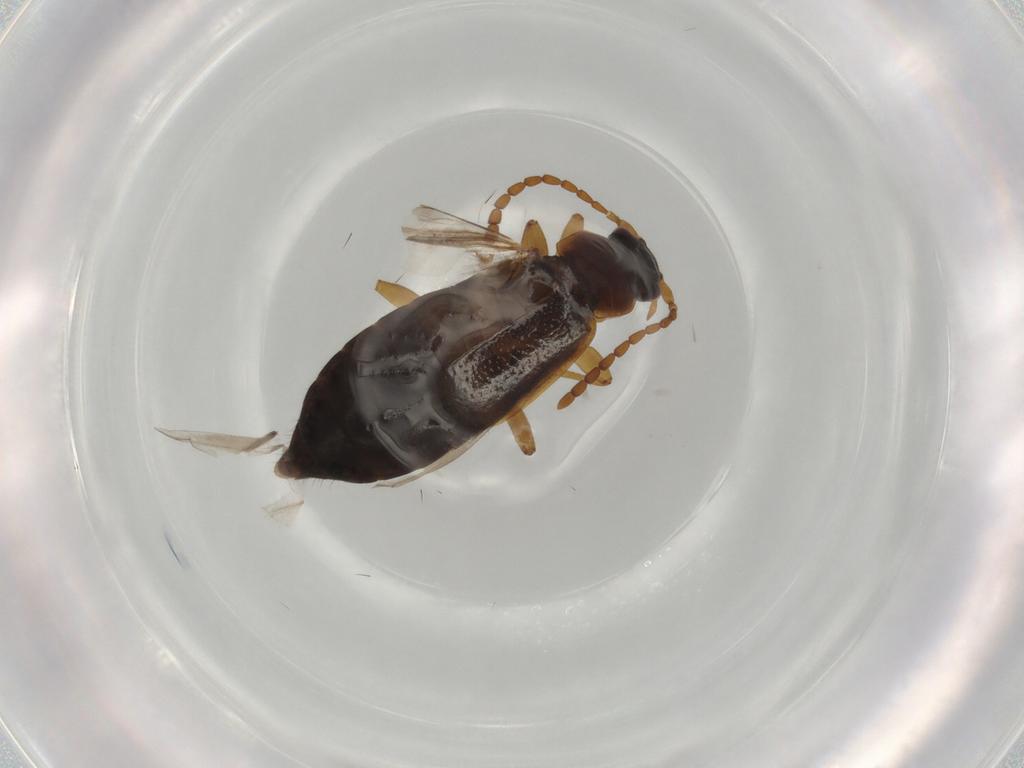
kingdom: Animalia
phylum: Arthropoda
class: Insecta
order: Coleoptera
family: Staphylinidae
